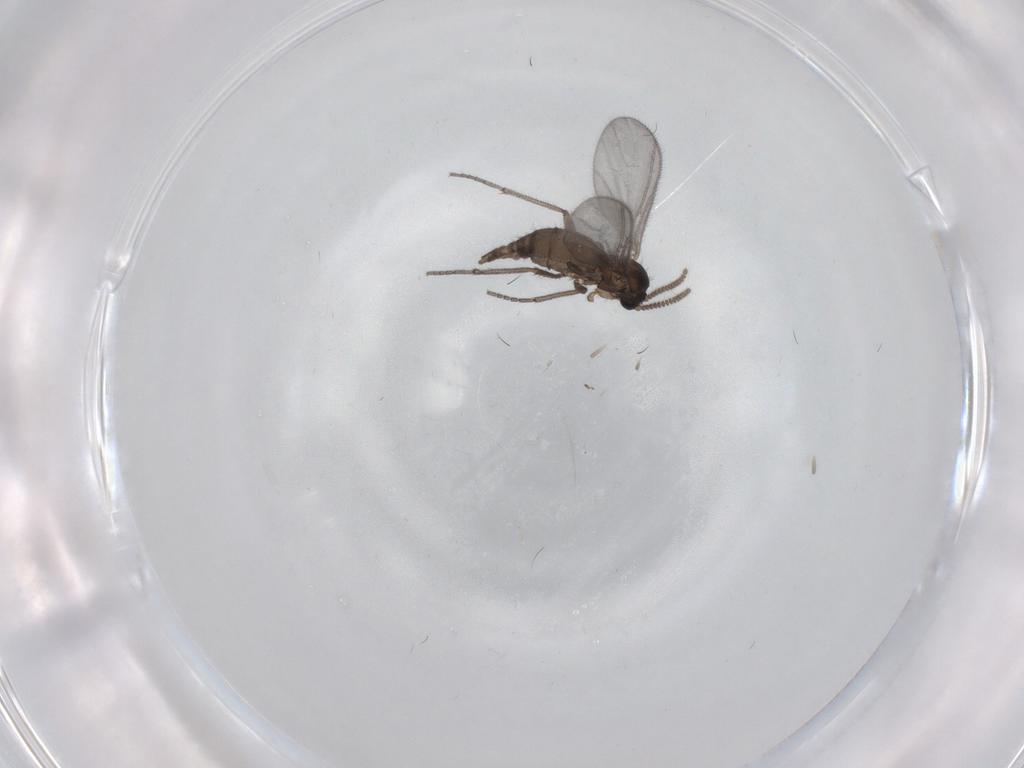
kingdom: Animalia
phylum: Arthropoda
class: Insecta
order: Diptera
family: Sciaridae
